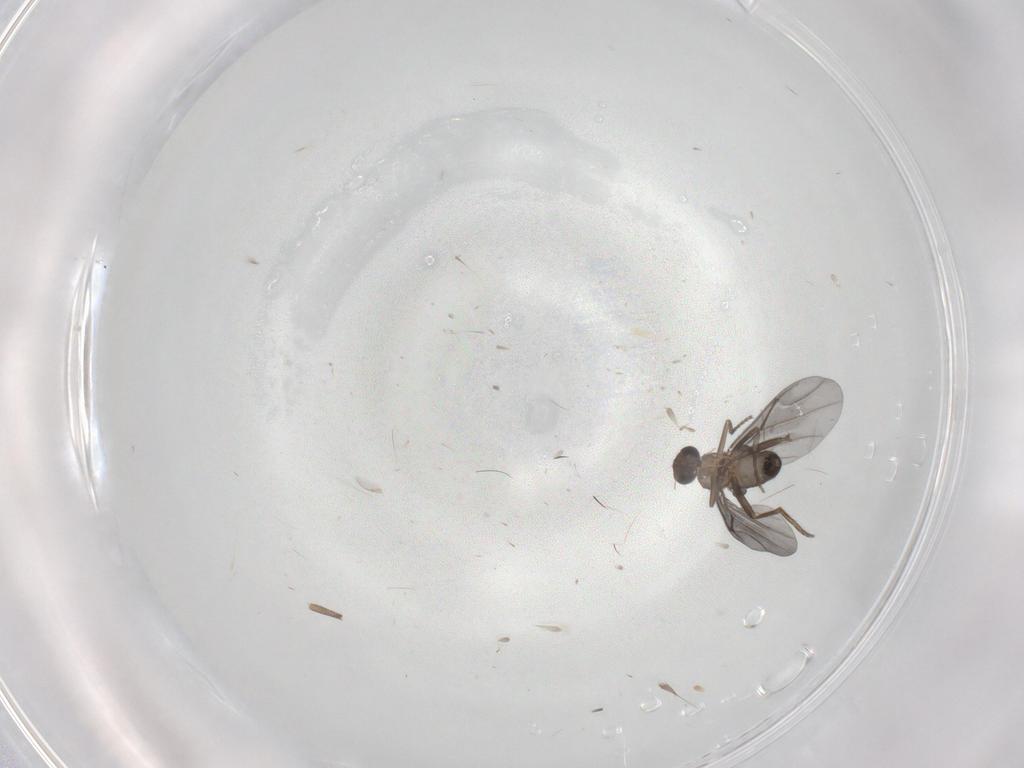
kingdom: Animalia
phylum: Arthropoda
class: Insecta
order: Diptera
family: Phoridae
